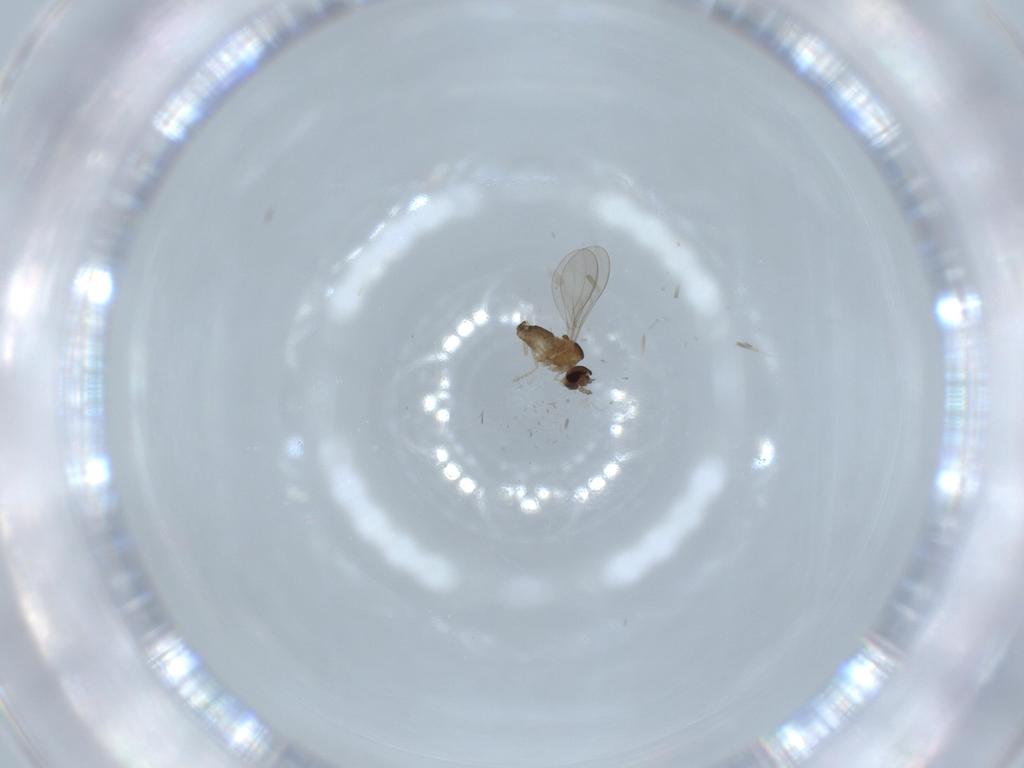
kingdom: Animalia
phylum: Arthropoda
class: Insecta
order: Diptera
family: Cecidomyiidae
